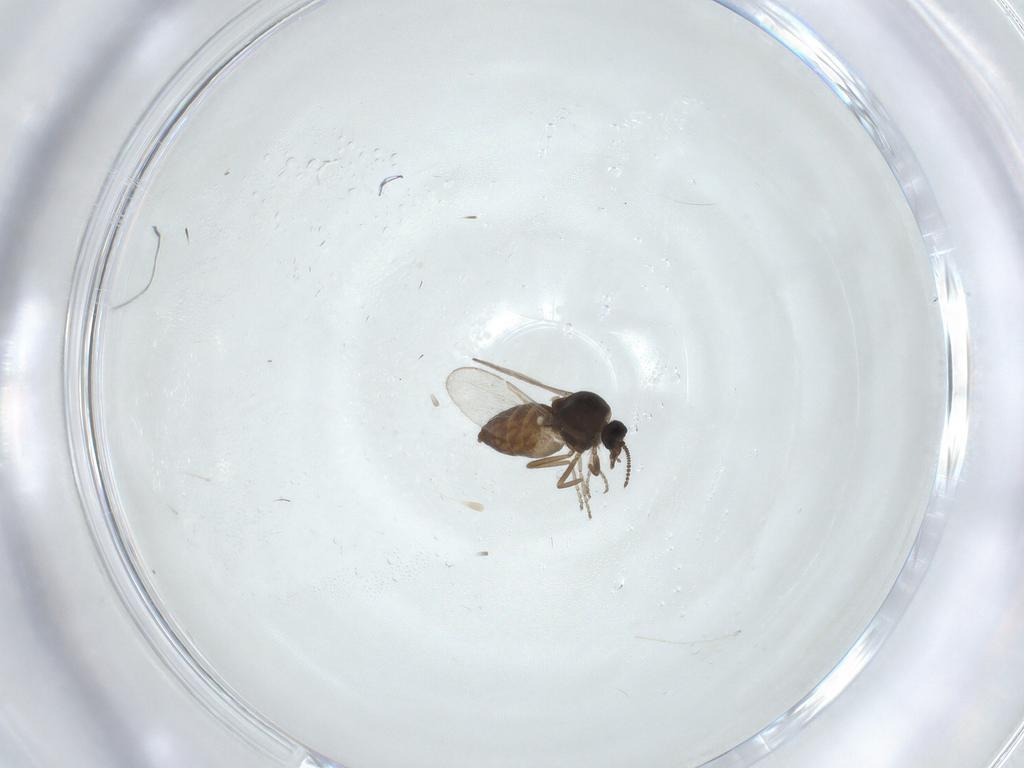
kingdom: Animalia
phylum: Arthropoda
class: Insecta
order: Diptera
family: Ceratopogonidae
